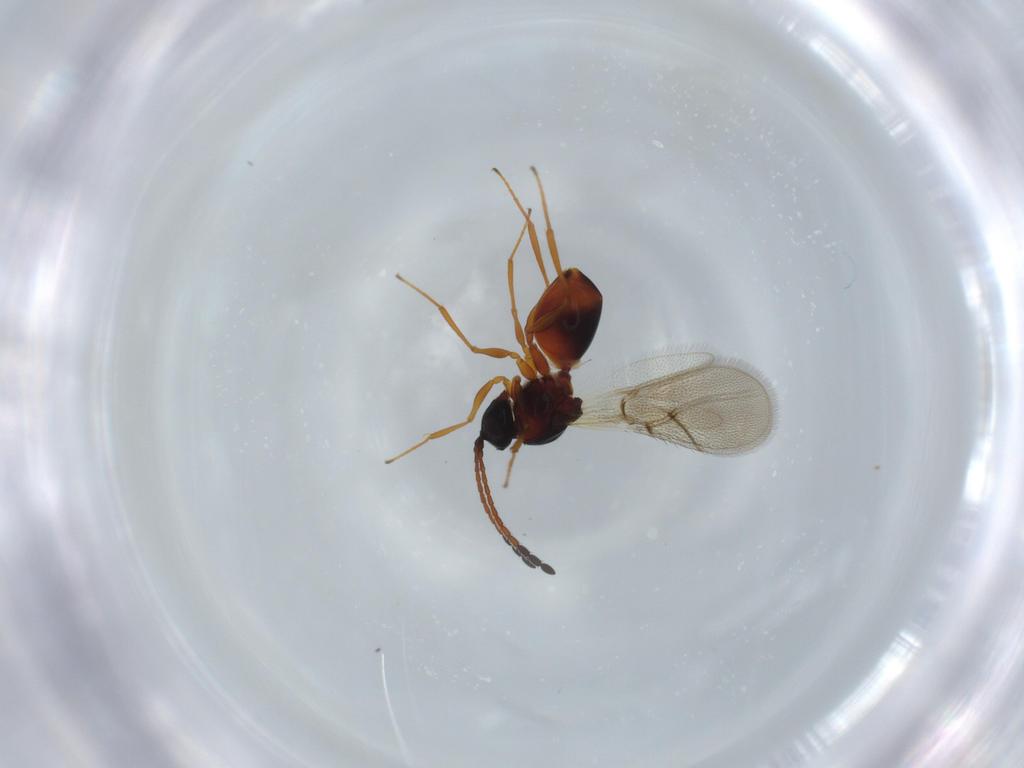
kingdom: Animalia
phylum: Arthropoda
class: Insecta
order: Hymenoptera
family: Figitidae
